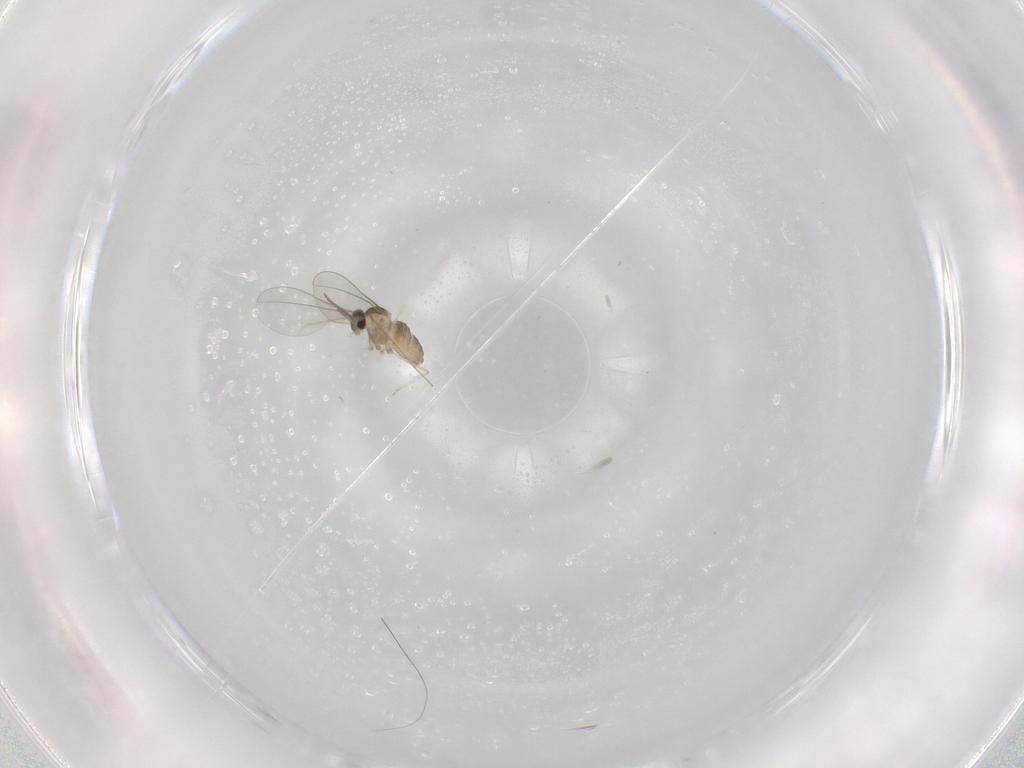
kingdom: Animalia
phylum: Arthropoda
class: Insecta
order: Diptera
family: Cecidomyiidae
